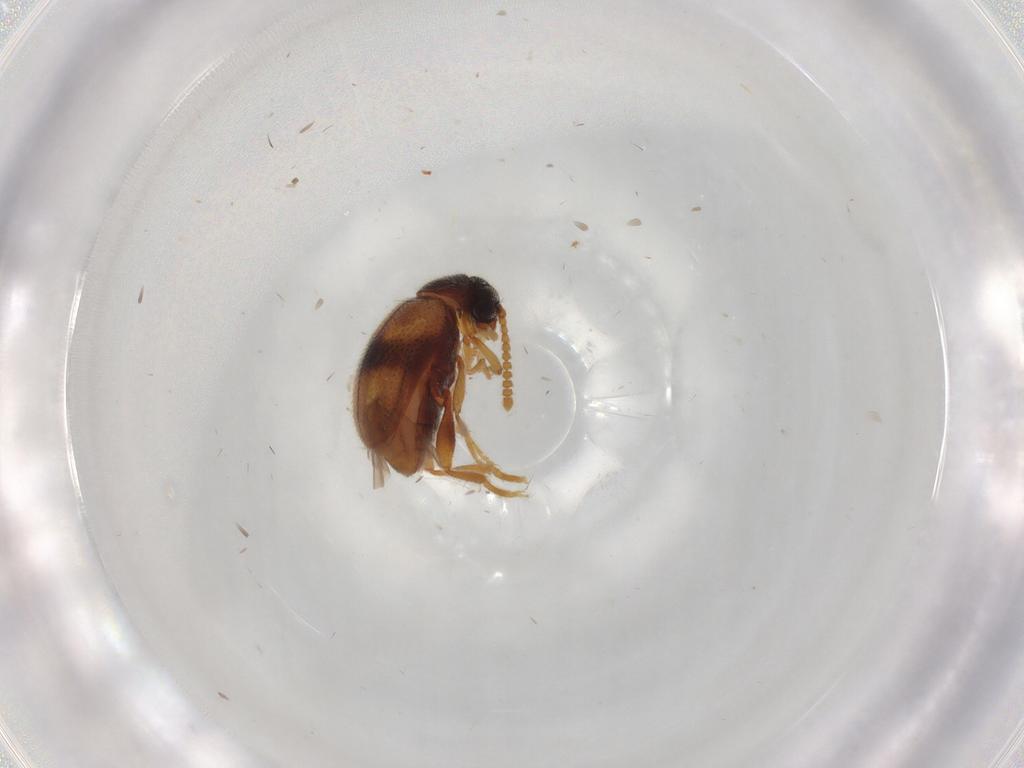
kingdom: Animalia
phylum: Arthropoda
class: Insecta
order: Coleoptera
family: Aderidae
